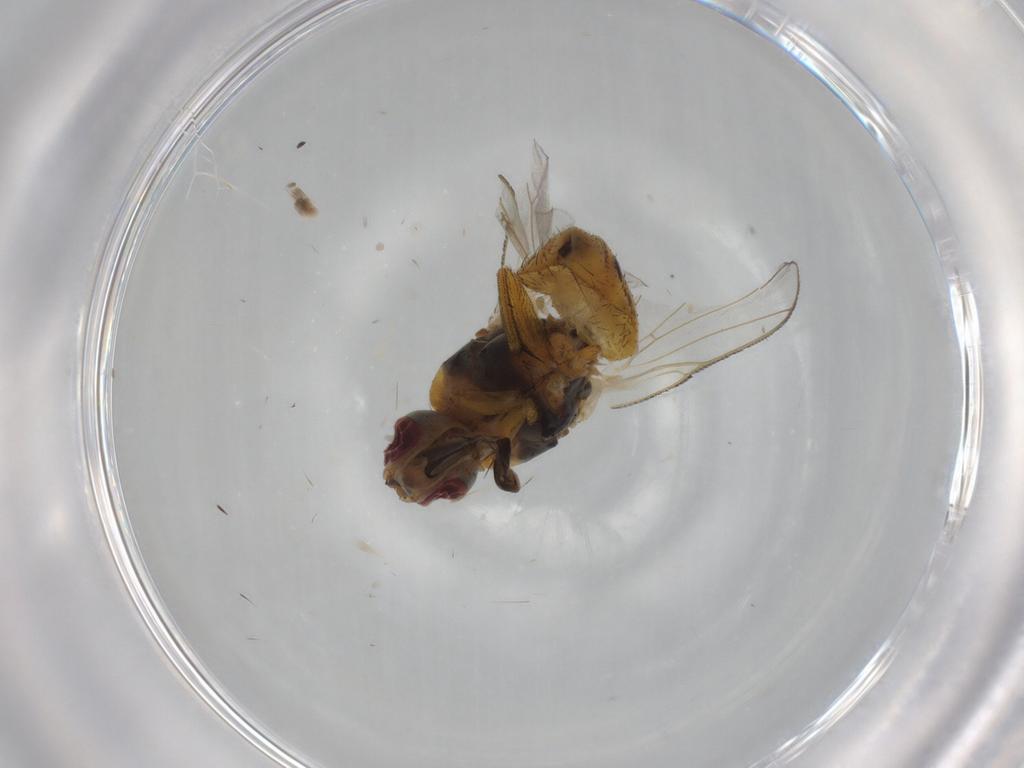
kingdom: Animalia
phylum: Arthropoda
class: Insecta
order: Diptera
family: Muscidae
